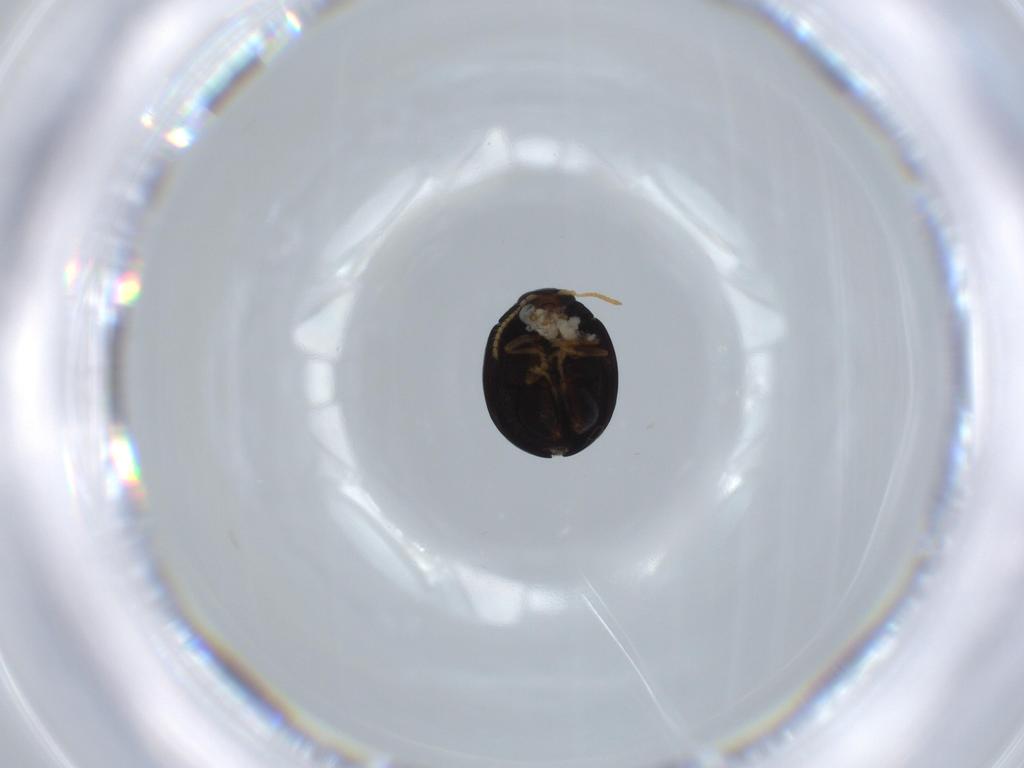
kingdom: Animalia
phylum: Arthropoda
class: Insecta
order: Coleoptera
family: Chrysomelidae
